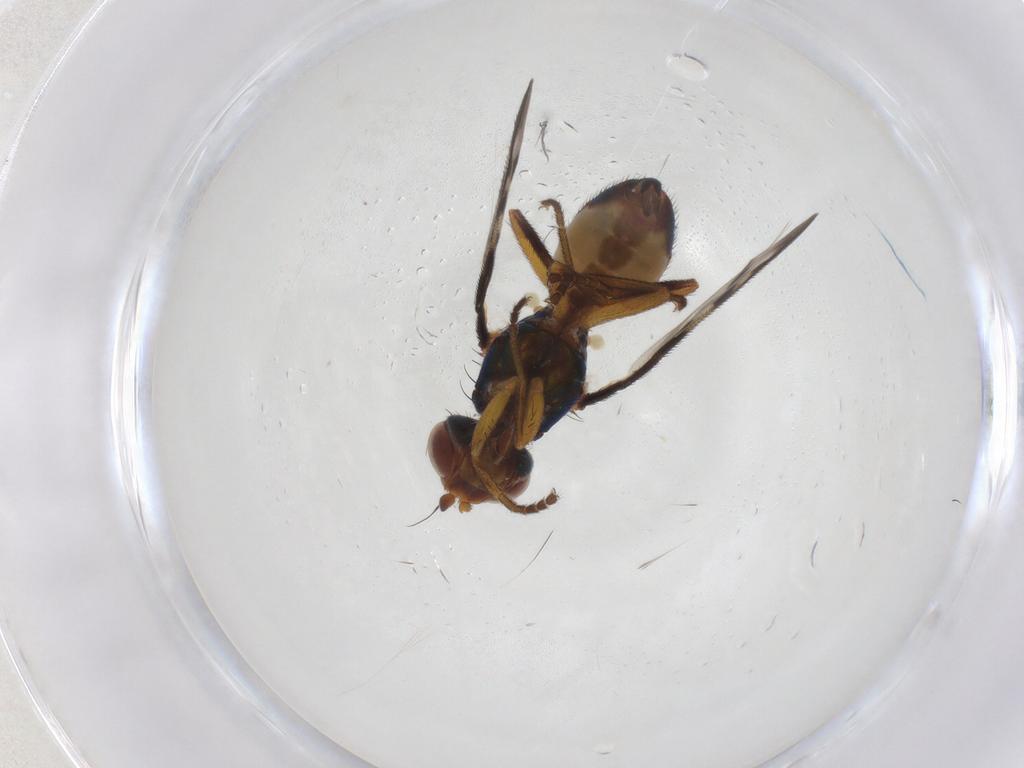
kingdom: Animalia
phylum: Arthropoda
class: Insecta
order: Diptera
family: Platystomatidae
